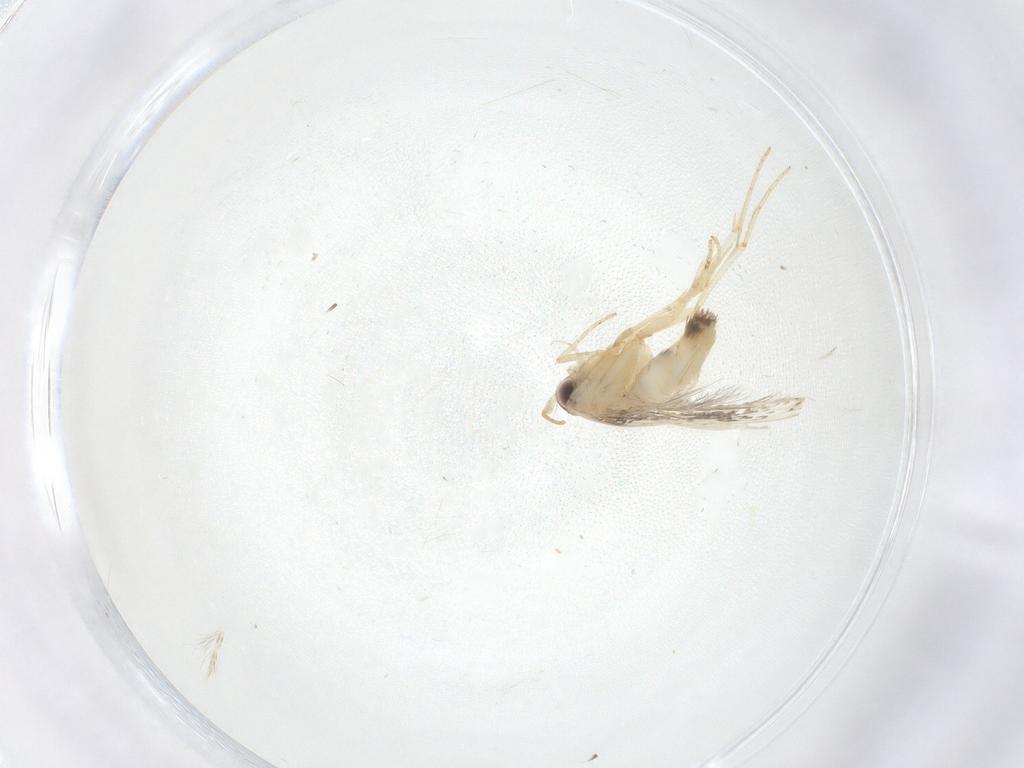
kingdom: Animalia
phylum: Arthropoda
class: Insecta
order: Lepidoptera
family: Cosmopterigidae
